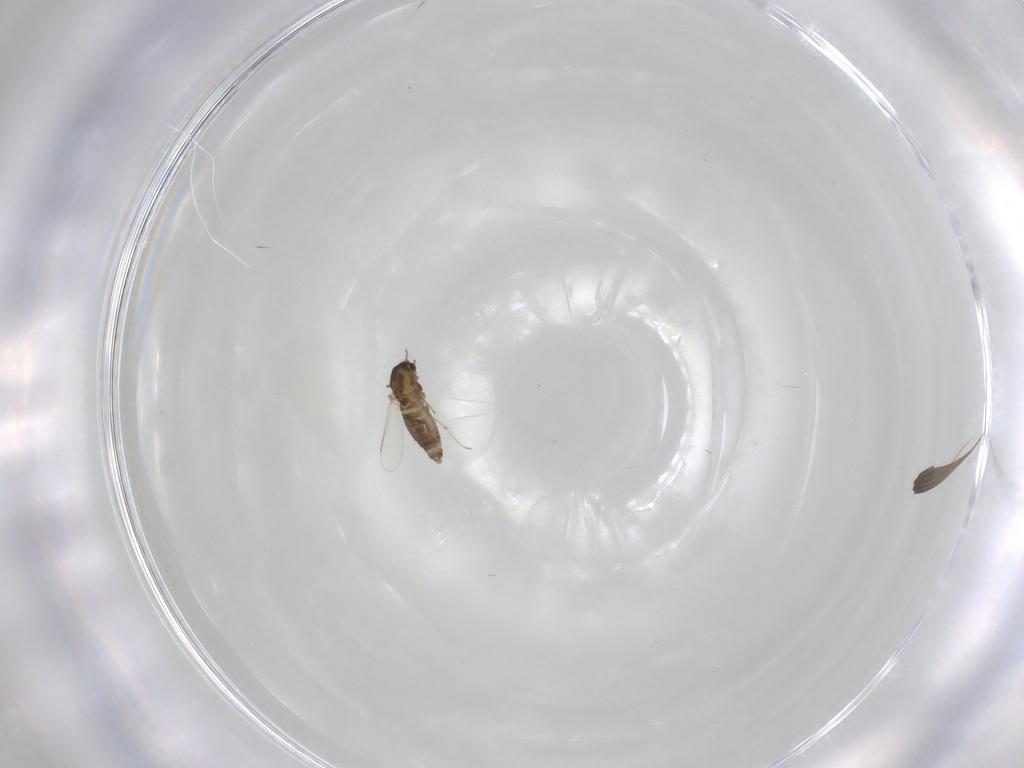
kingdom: Animalia
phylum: Arthropoda
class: Insecta
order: Diptera
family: Chironomidae
